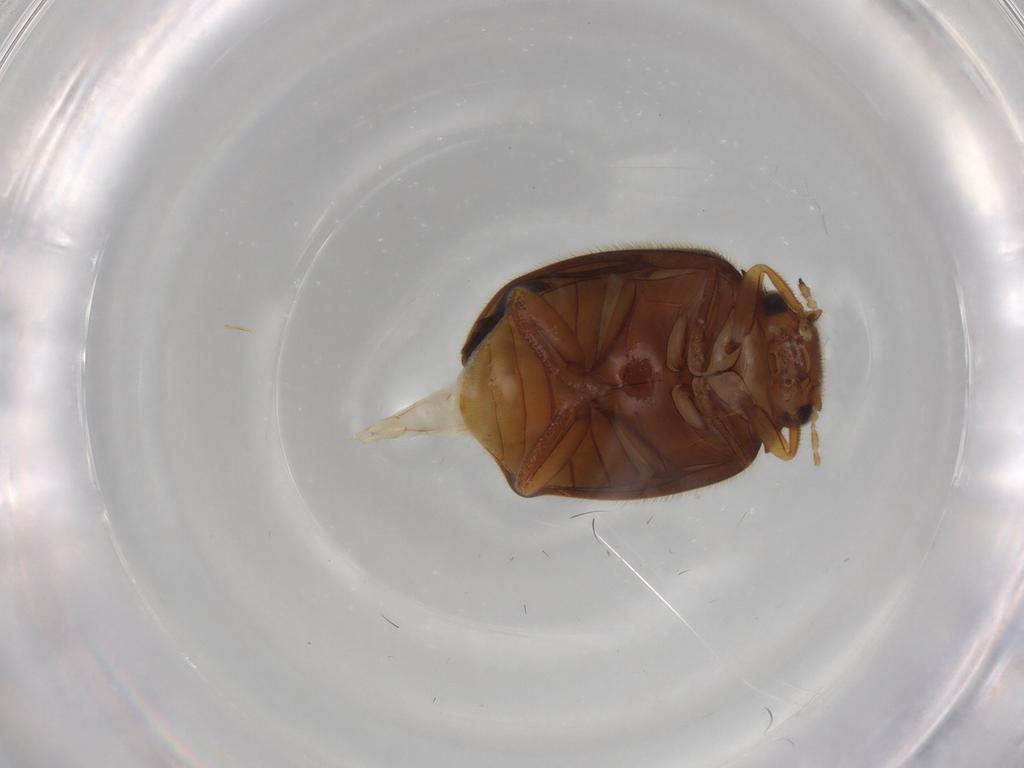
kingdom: Animalia
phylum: Arthropoda
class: Insecta
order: Coleoptera
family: Scirtidae
